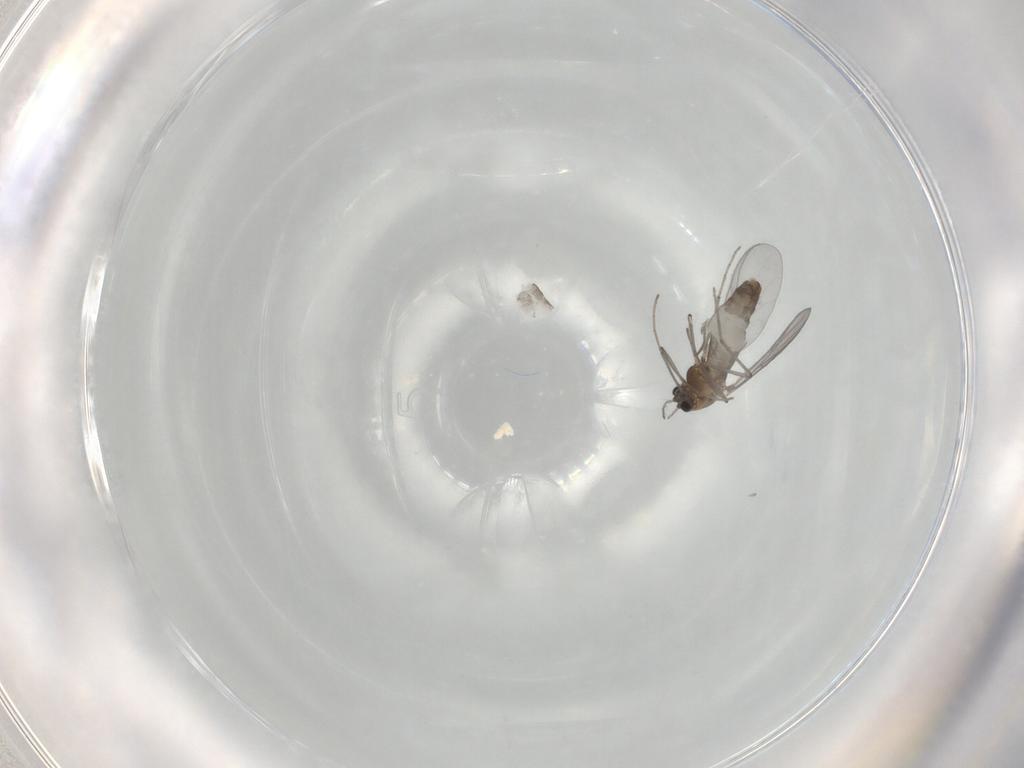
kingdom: Animalia
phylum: Arthropoda
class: Insecta
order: Diptera
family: Chironomidae
